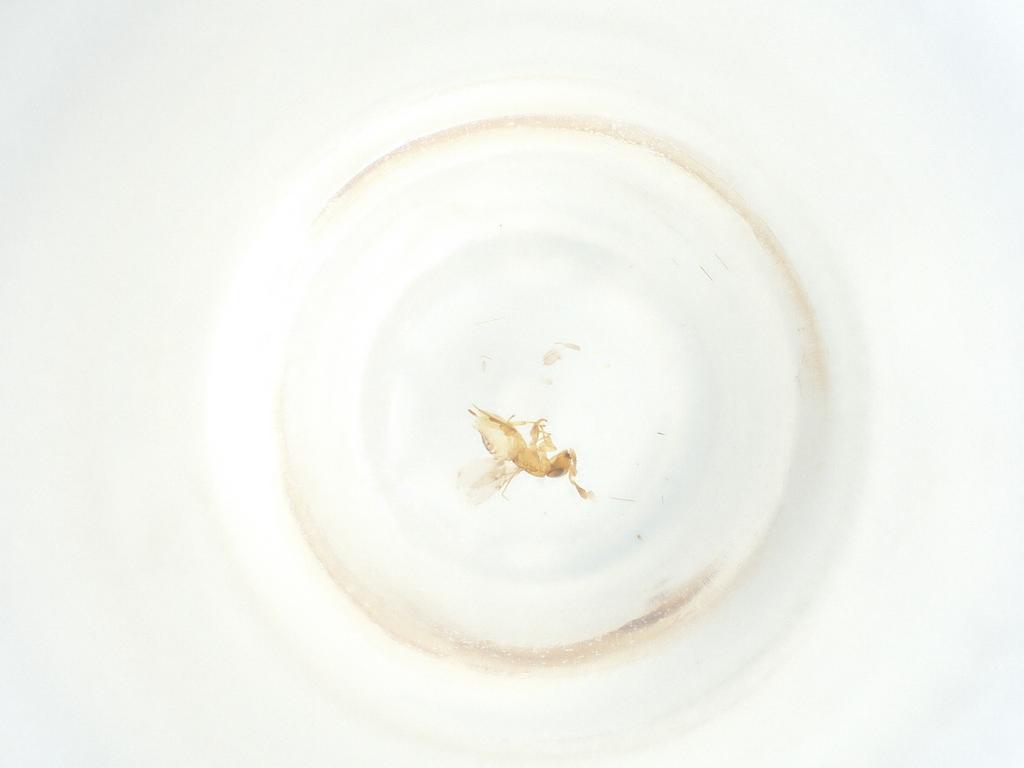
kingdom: Animalia
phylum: Arthropoda
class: Insecta
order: Hymenoptera
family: Encyrtidae
